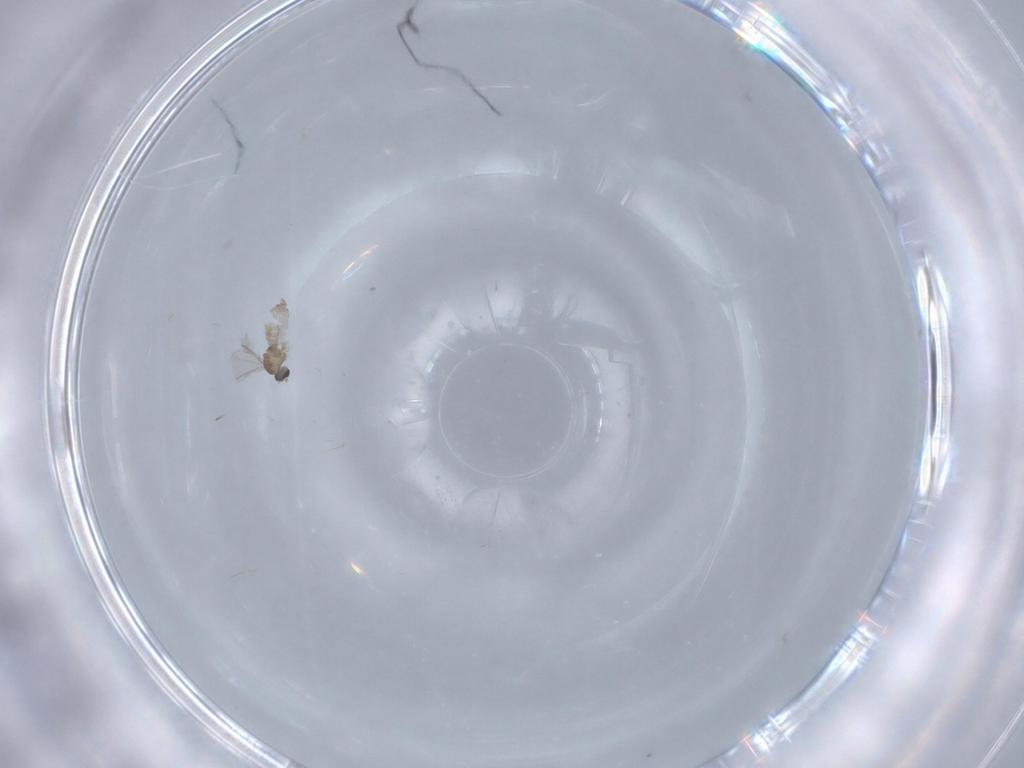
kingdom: Animalia
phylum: Arthropoda
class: Insecta
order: Diptera
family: Cecidomyiidae
